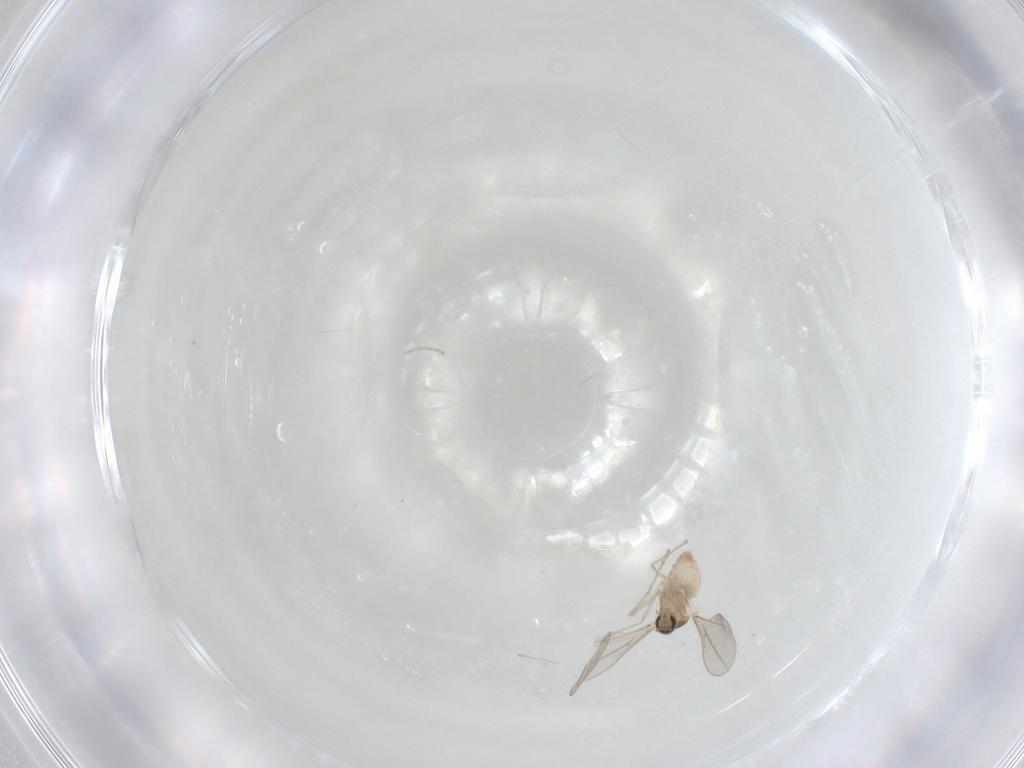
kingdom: Animalia
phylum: Arthropoda
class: Insecta
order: Diptera
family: Cecidomyiidae
